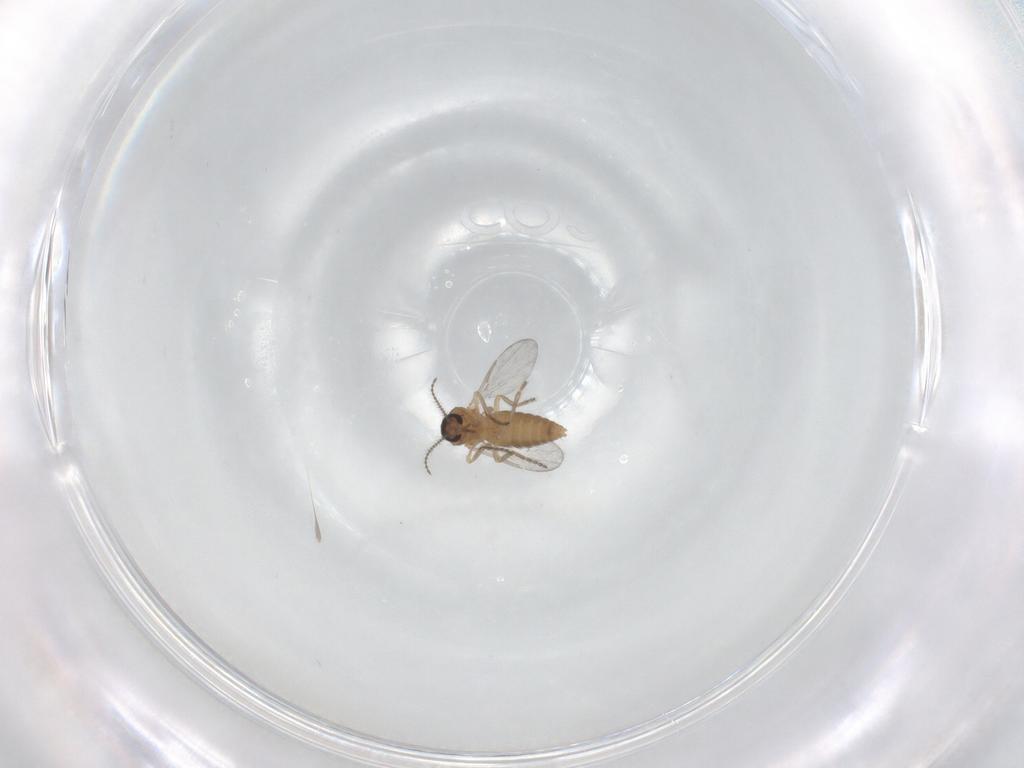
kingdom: Animalia
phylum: Arthropoda
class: Insecta
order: Diptera
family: Ceratopogonidae
